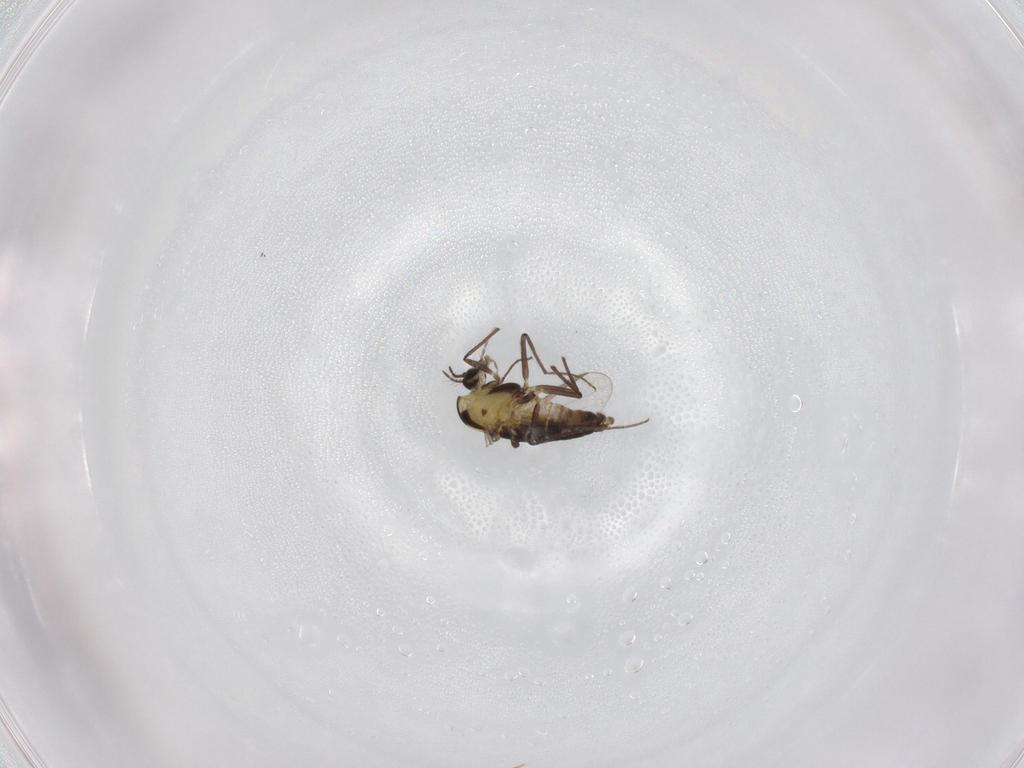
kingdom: Animalia
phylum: Arthropoda
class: Insecta
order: Diptera
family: Chironomidae
